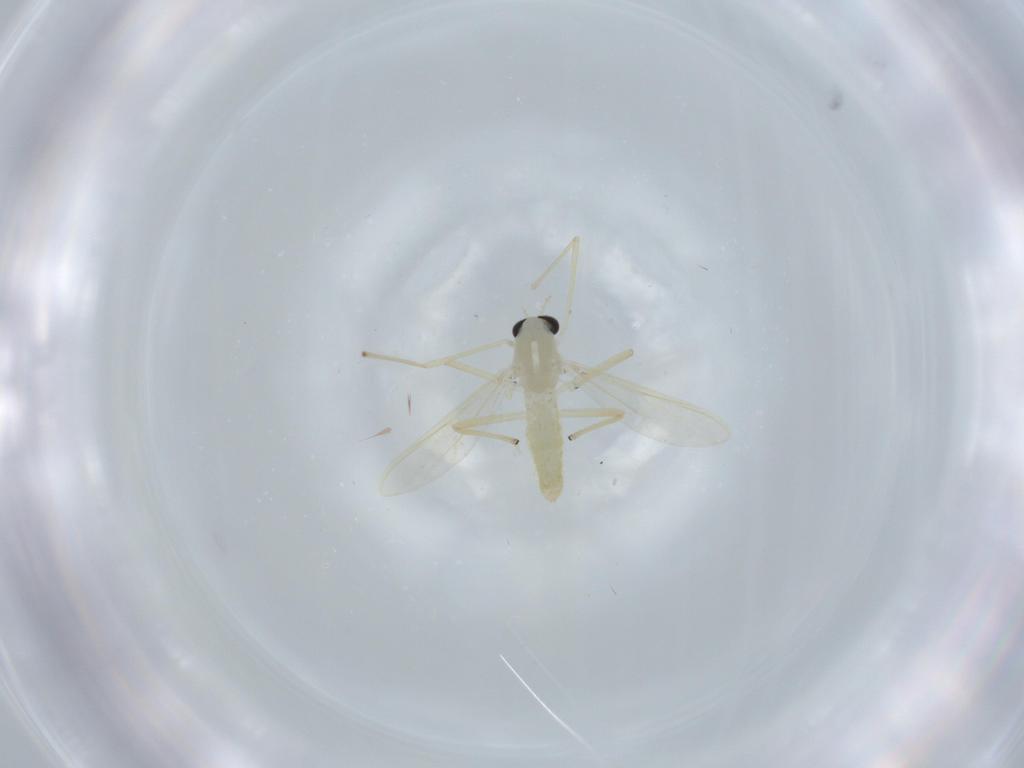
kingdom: Animalia
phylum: Arthropoda
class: Insecta
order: Diptera
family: Chironomidae
